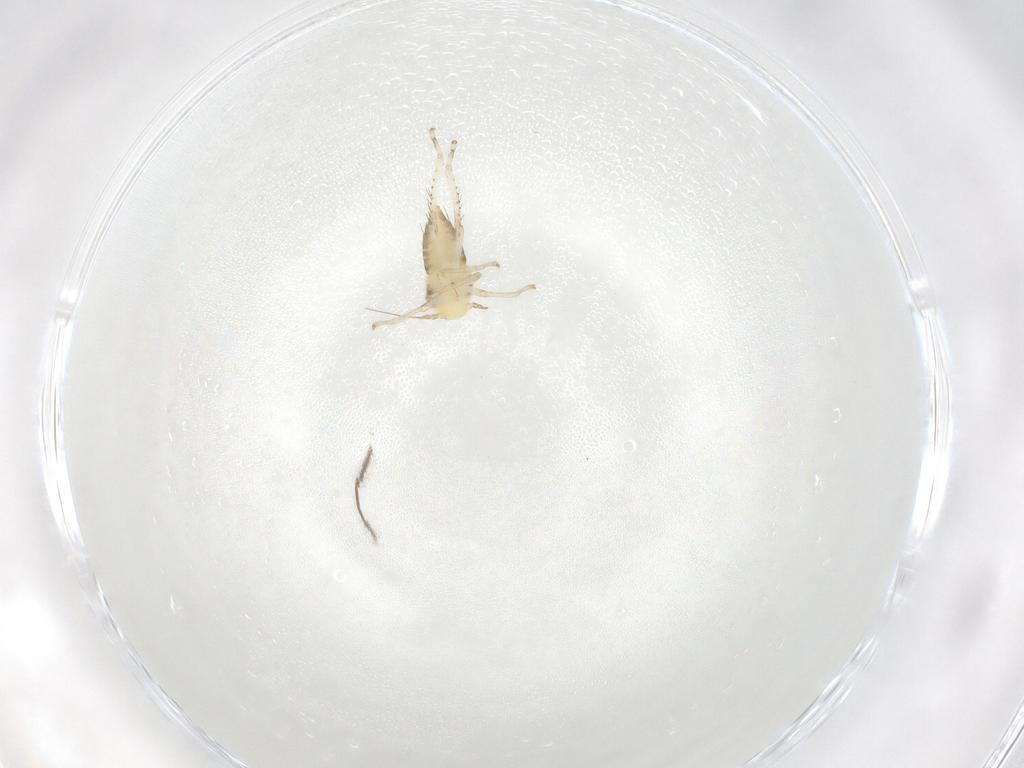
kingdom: Animalia
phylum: Arthropoda
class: Insecta
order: Hemiptera
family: Cicadellidae
